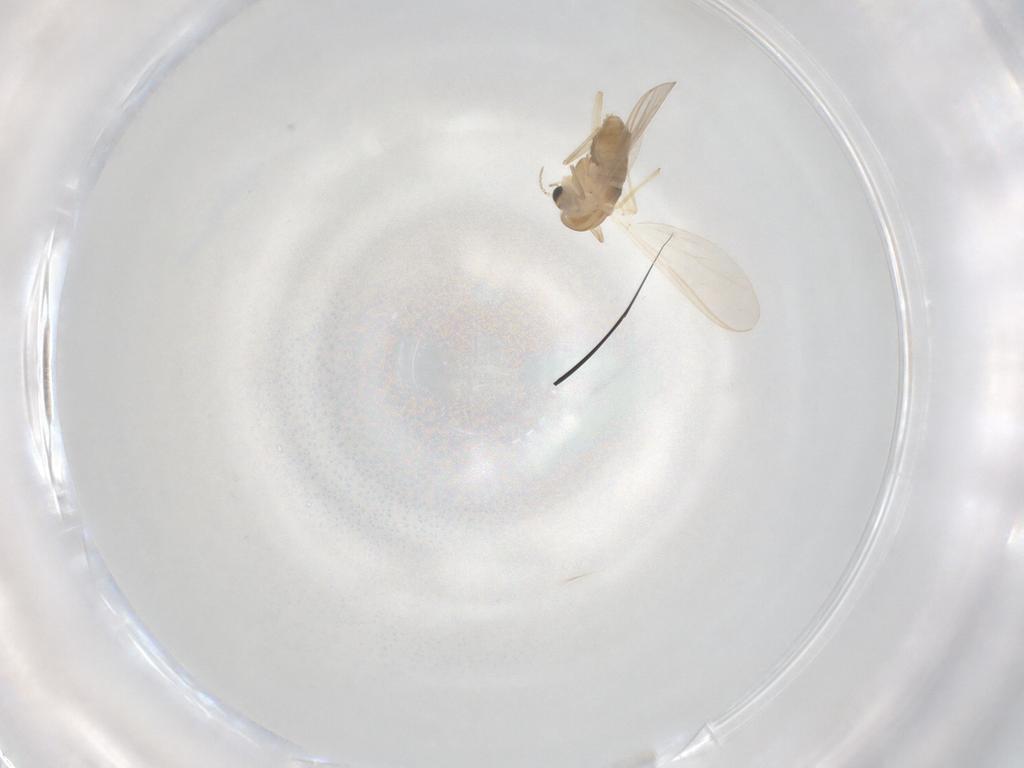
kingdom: Animalia
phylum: Arthropoda
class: Insecta
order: Diptera
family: Chironomidae
